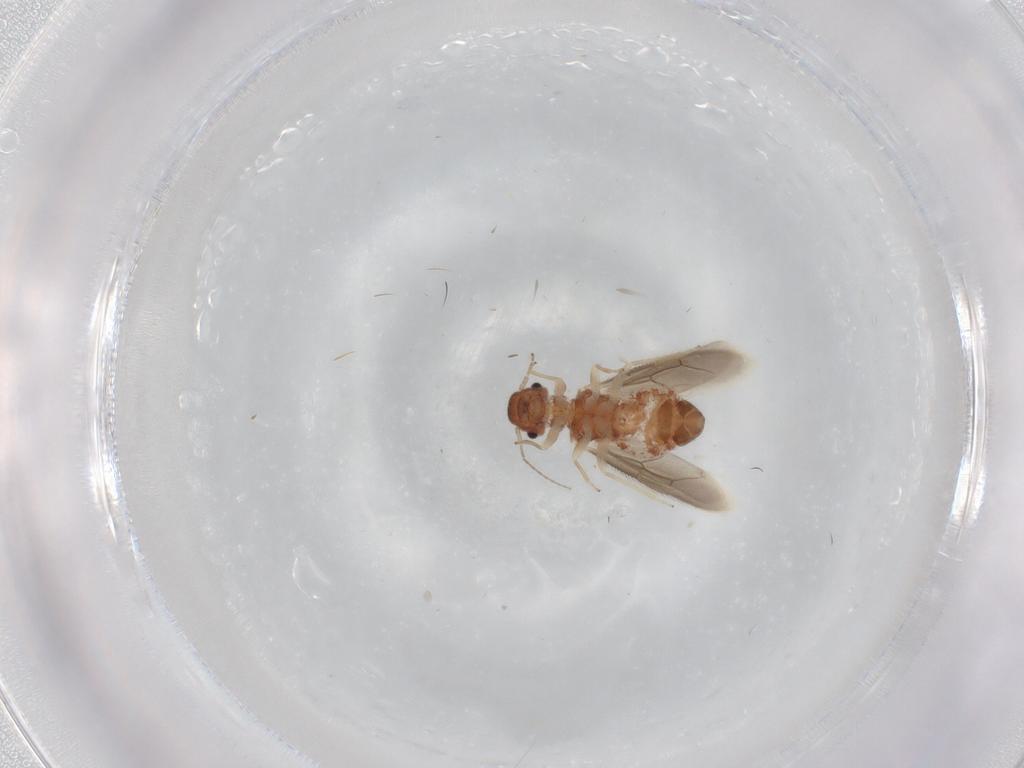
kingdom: Animalia
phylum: Arthropoda
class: Insecta
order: Psocodea
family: Archipsocidae
